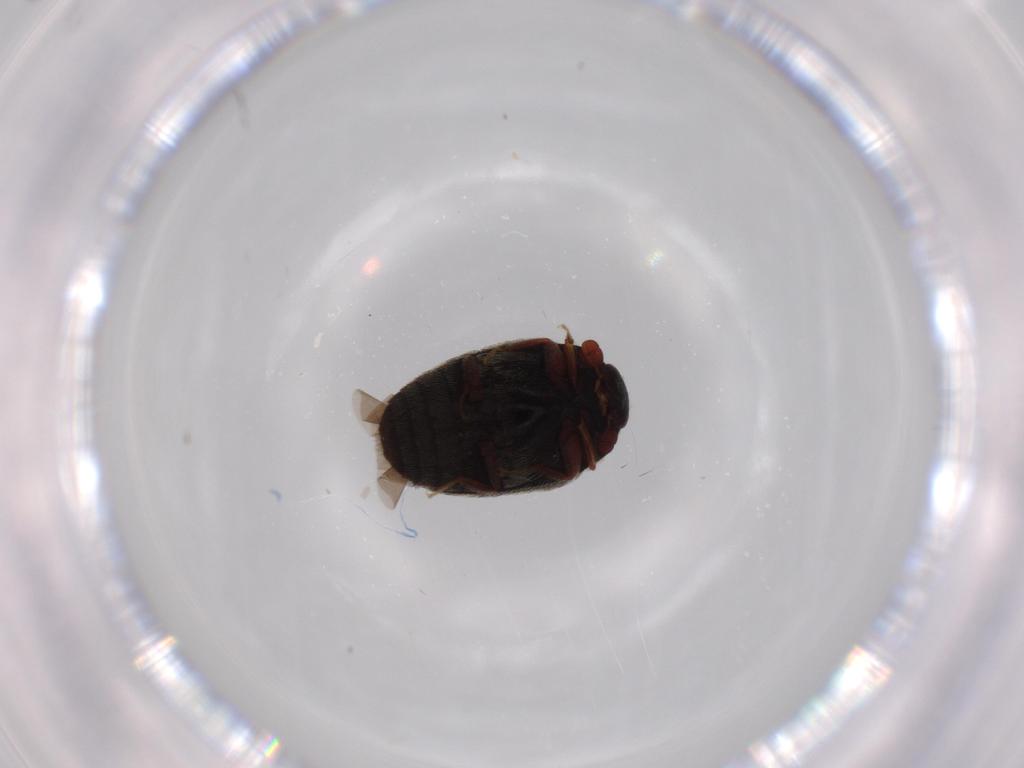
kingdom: Animalia
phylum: Arthropoda
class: Insecta
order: Coleoptera
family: Dermestidae
